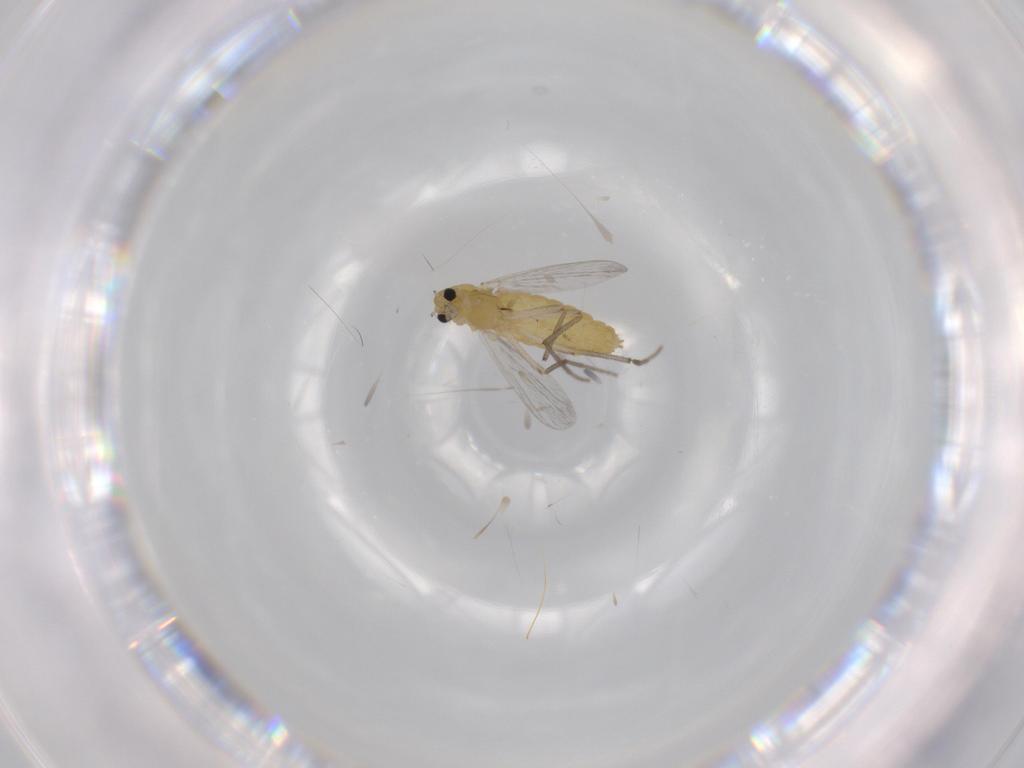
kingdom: Animalia
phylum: Arthropoda
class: Insecta
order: Diptera
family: Chironomidae
